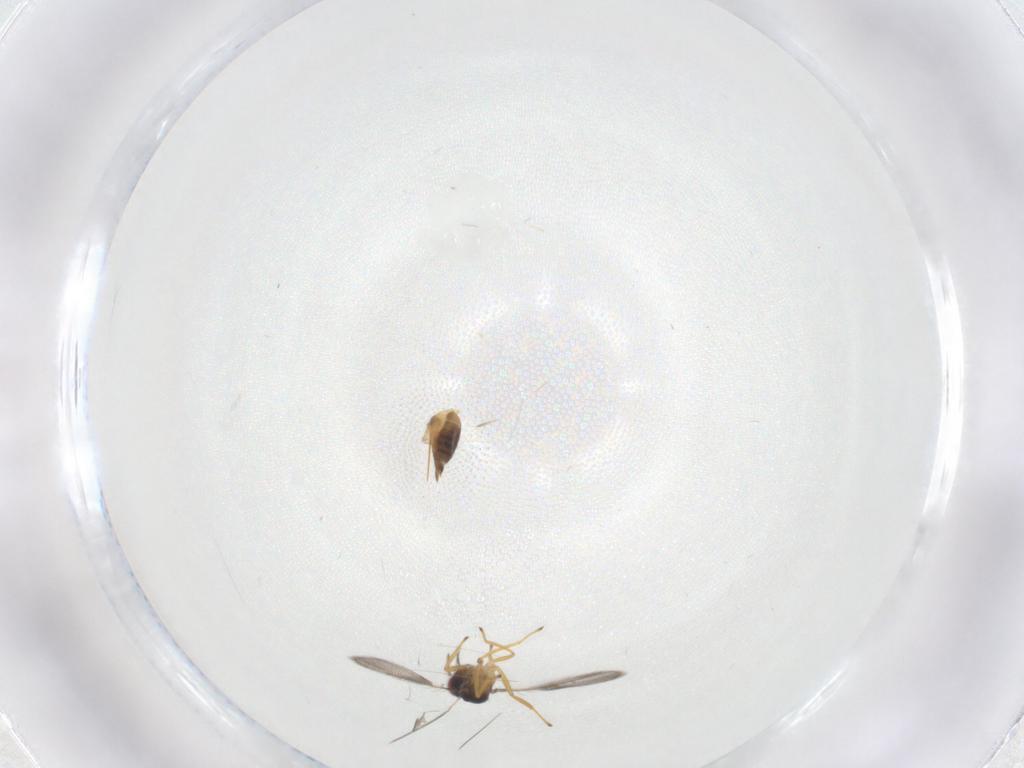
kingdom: Animalia
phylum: Arthropoda
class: Insecta
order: Hymenoptera
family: Eulophidae
